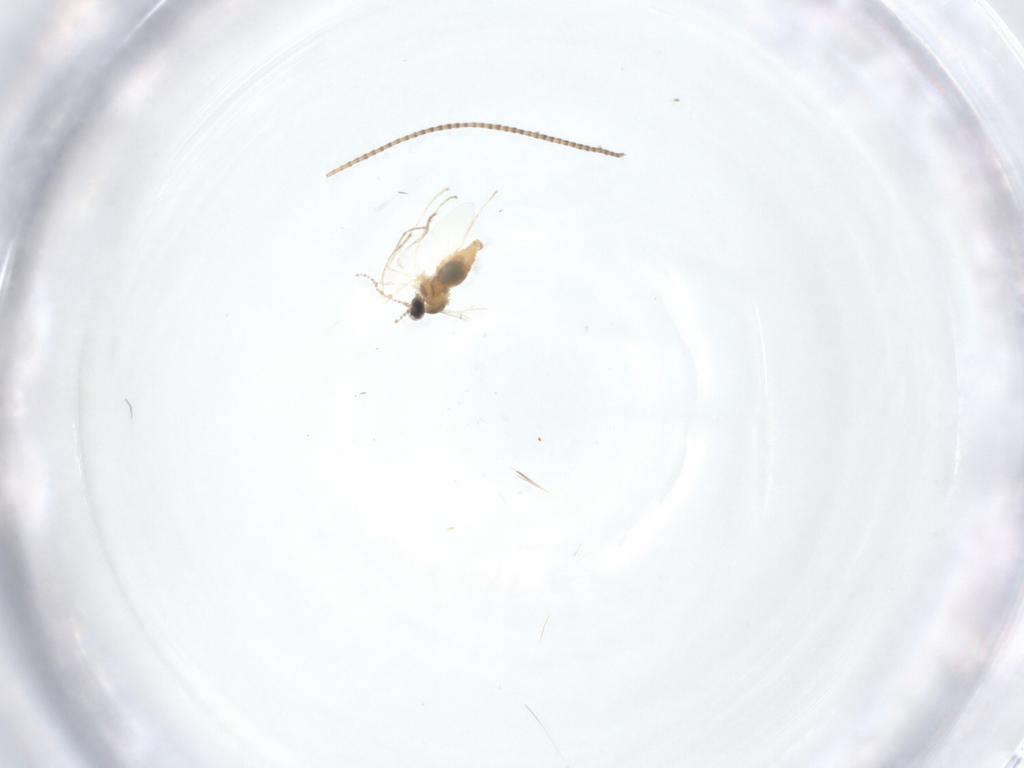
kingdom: Animalia
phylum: Arthropoda
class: Insecta
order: Diptera
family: Cecidomyiidae
